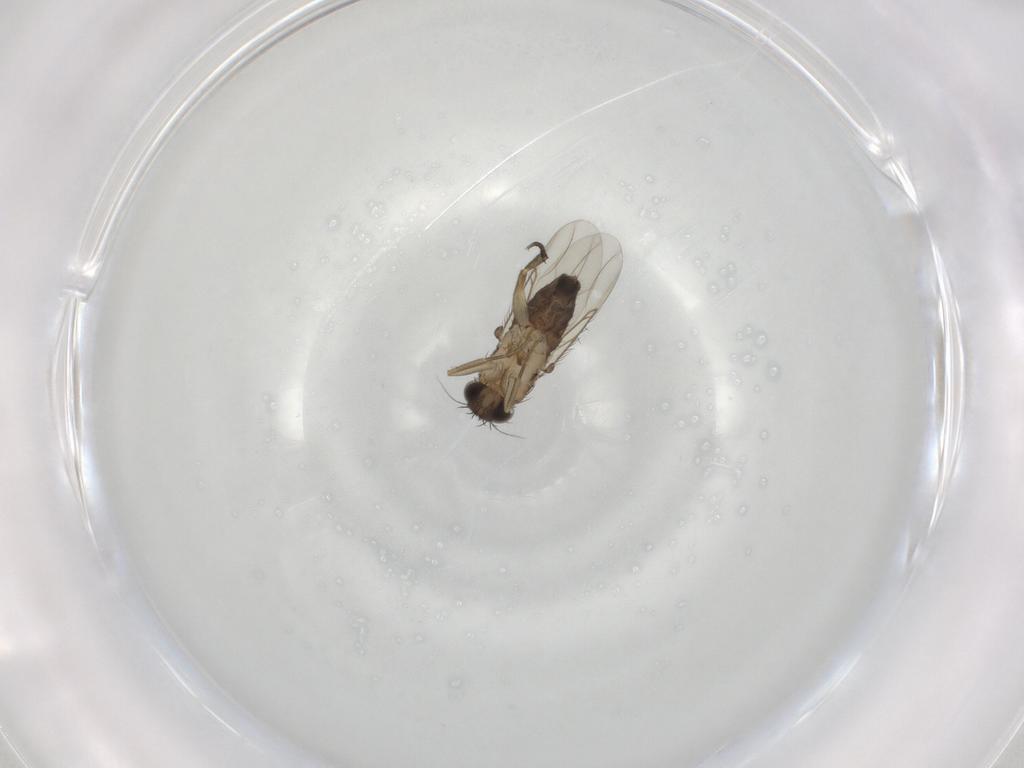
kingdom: Animalia
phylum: Arthropoda
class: Insecta
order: Diptera
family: Phoridae
